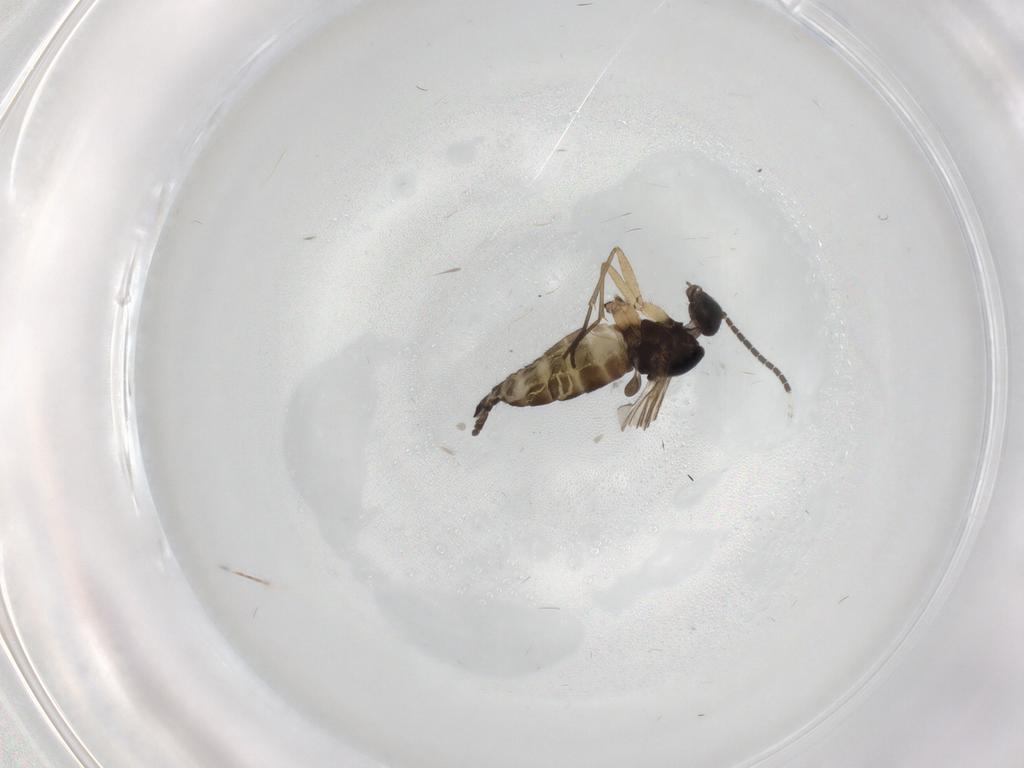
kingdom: Animalia
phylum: Arthropoda
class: Insecta
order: Diptera
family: Sciaridae
